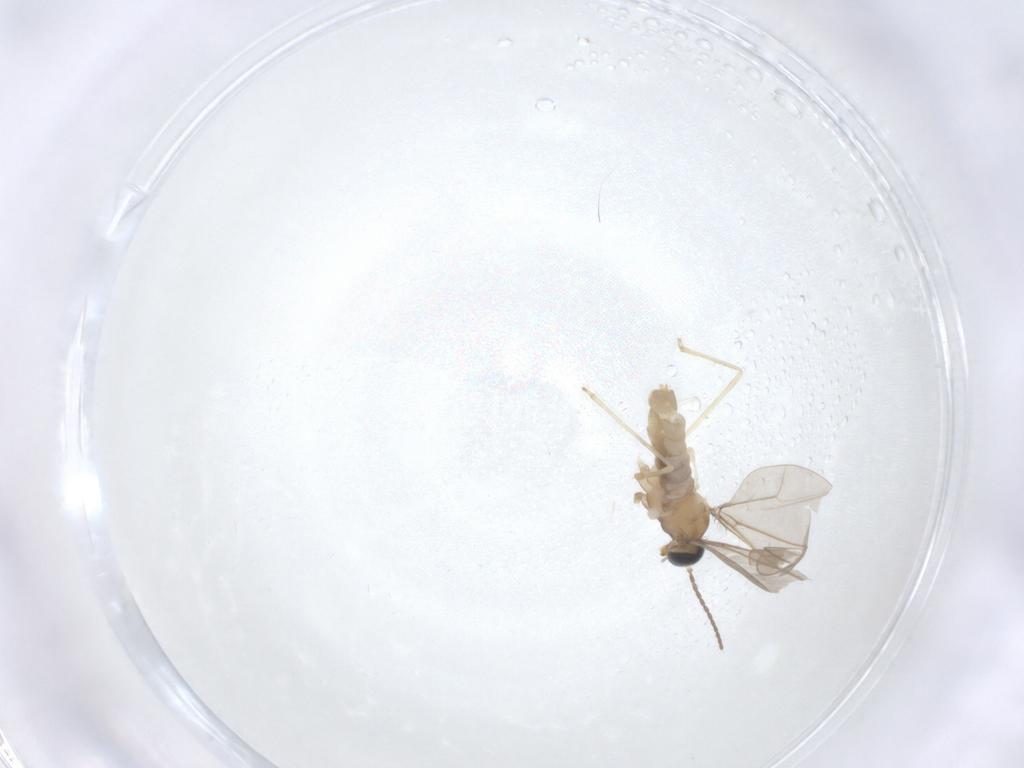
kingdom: Animalia
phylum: Arthropoda
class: Insecta
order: Diptera
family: Cecidomyiidae
